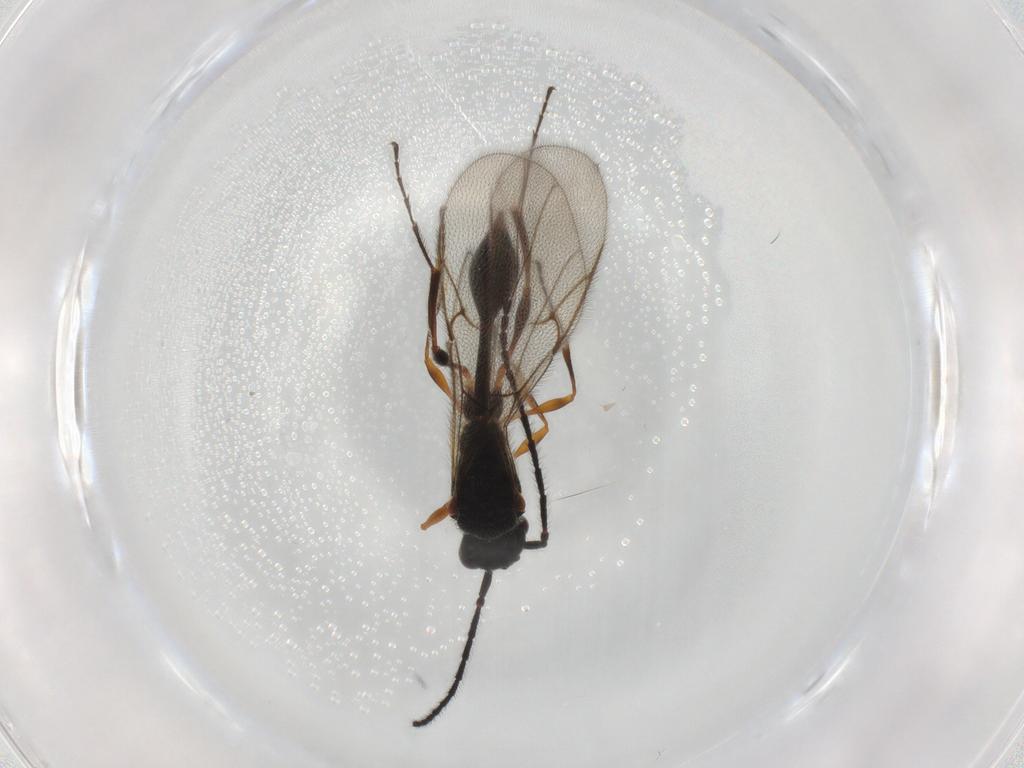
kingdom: Animalia
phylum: Arthropoda
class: Insecta
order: Hymenoptera
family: Diapriidae
